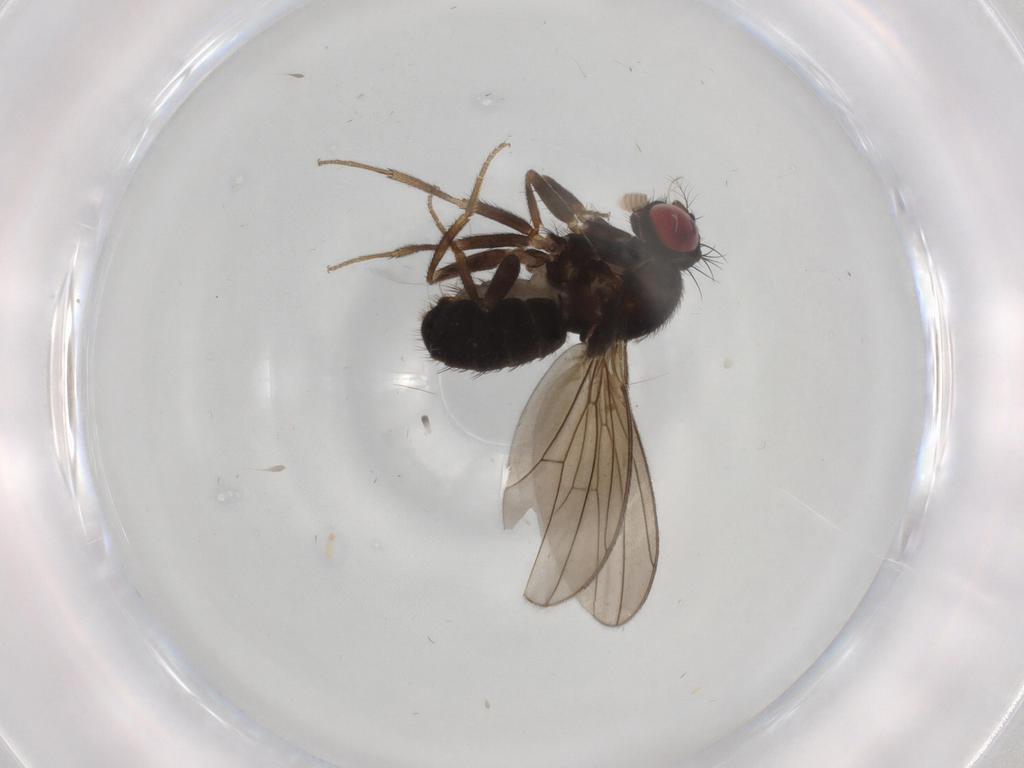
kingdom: Animalia
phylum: Arthropoda
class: Insecta
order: Diptera
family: Drosophilidae
